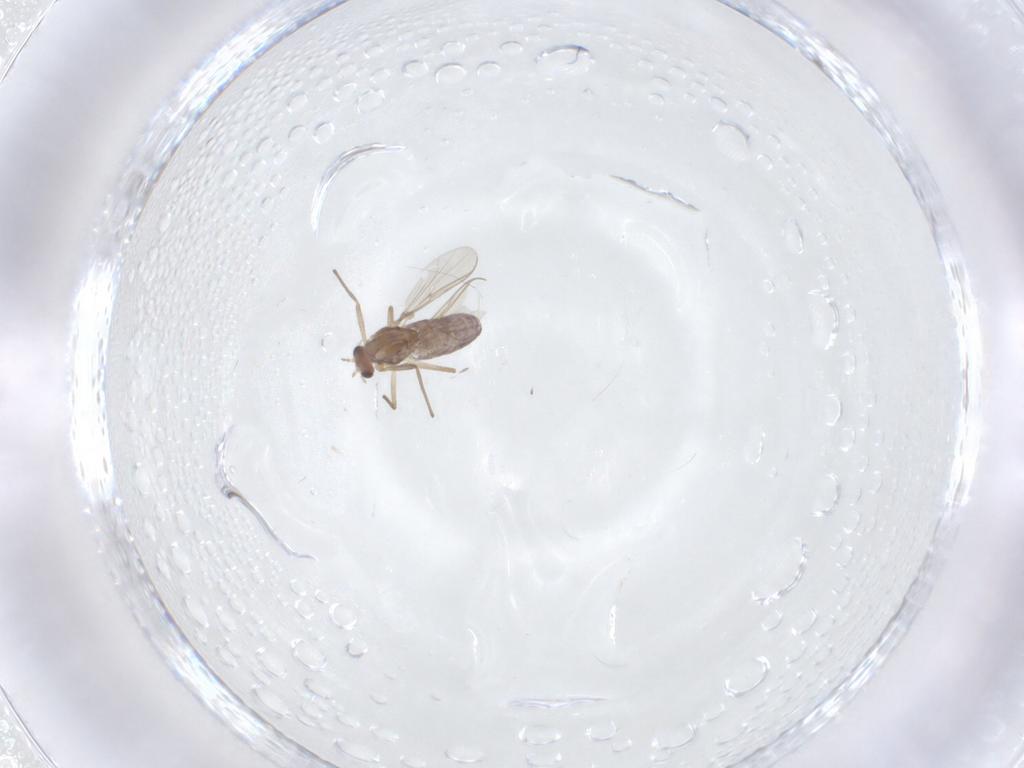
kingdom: Animalia
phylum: Arthropoda
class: Insecta
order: Diptera
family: Chironomidae
